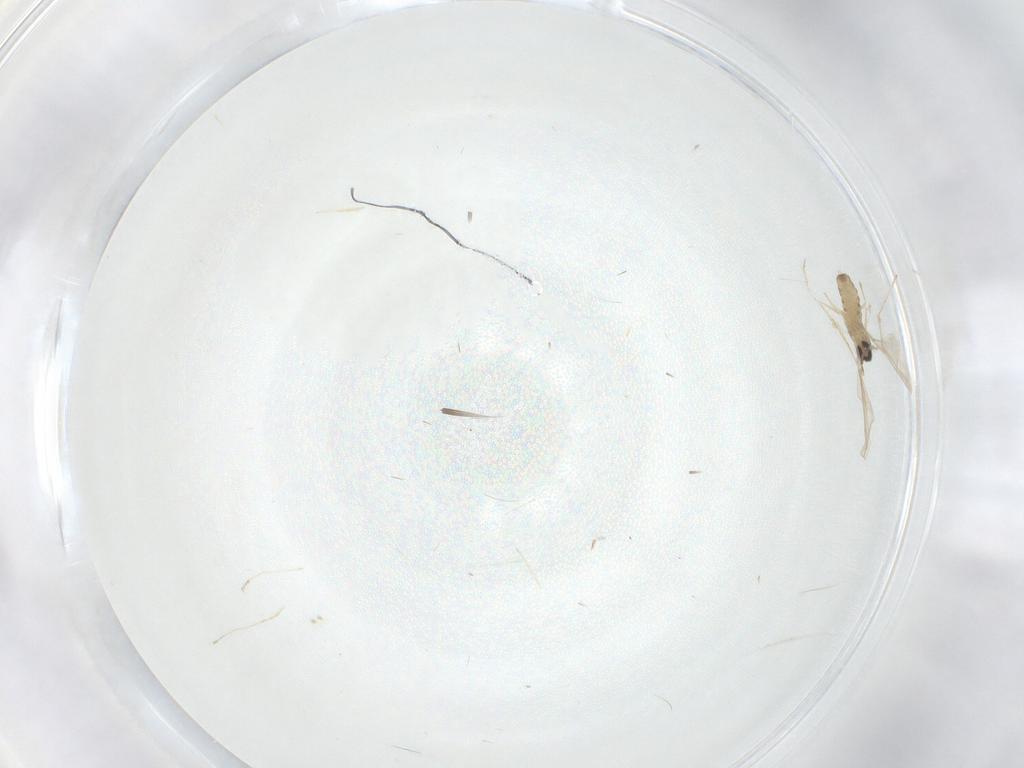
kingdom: Animalia
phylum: Arthropoda
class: Insecta
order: Diptera
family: Cecidomyiidae
